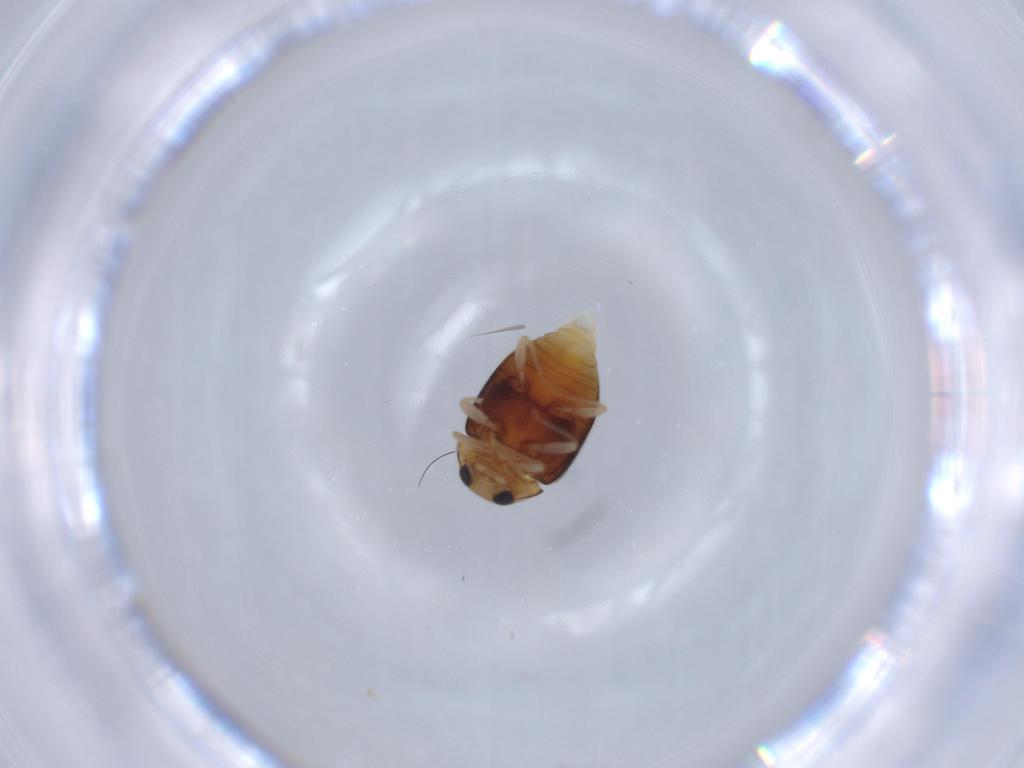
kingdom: Animalia
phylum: Arthropoda
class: Insecta
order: Coleoptera
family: Coccinellidae
